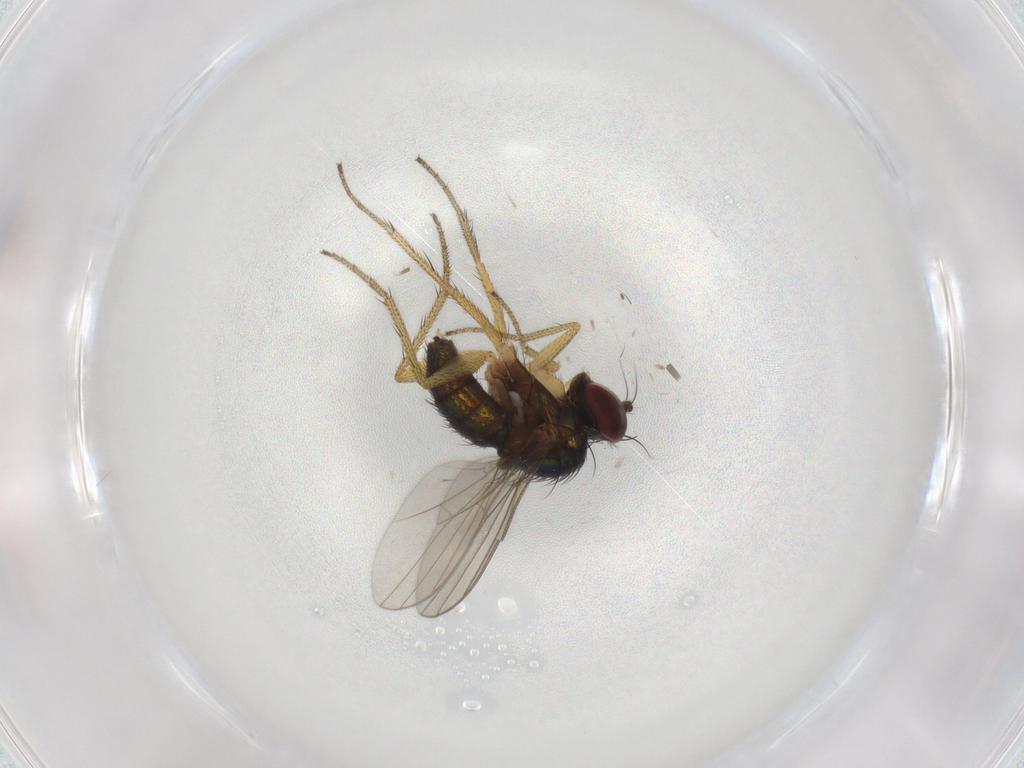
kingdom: Animalia
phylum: Arthropoda
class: Insecta
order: Diptera
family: Dolichopodidae
